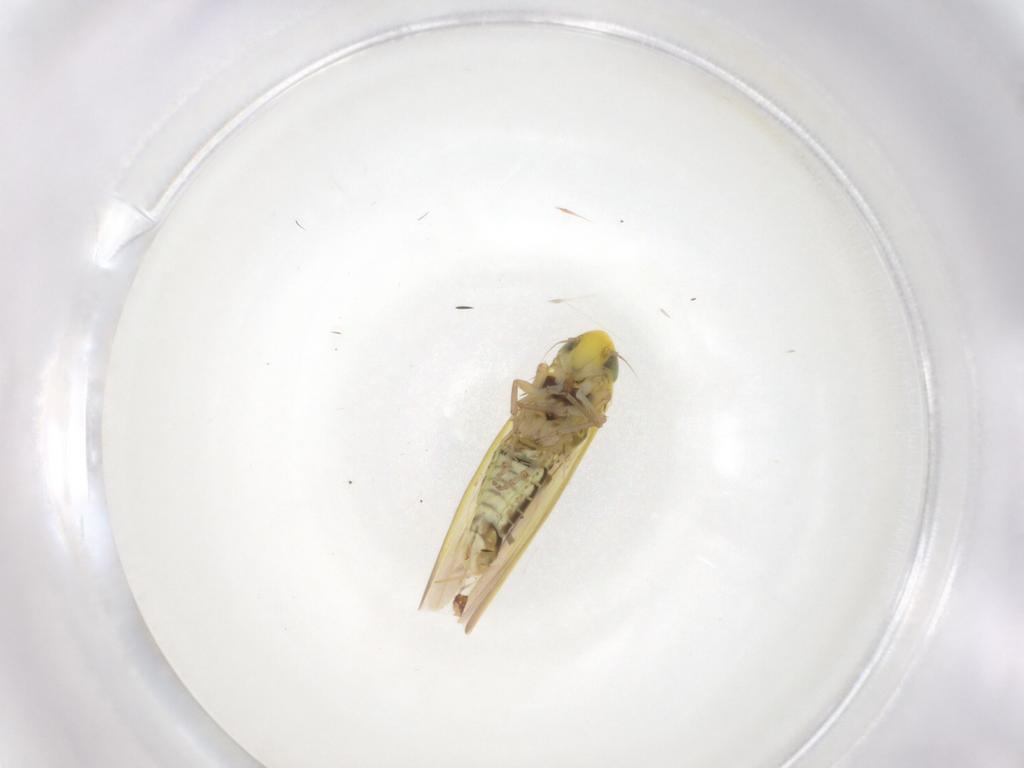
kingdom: Animalia
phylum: Arthropoda
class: Insecta
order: Hemiptera
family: Cicadellidae
